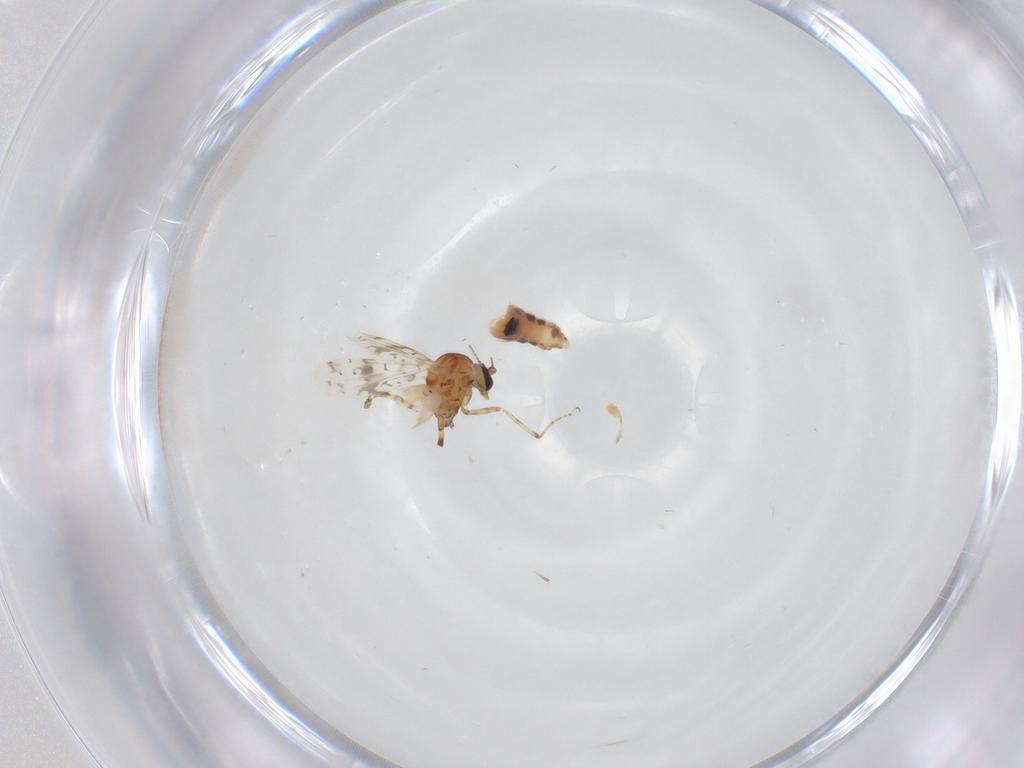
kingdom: Animalia
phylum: Arthropoda
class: Insecta
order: Diptera
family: Ceratopogonidae
